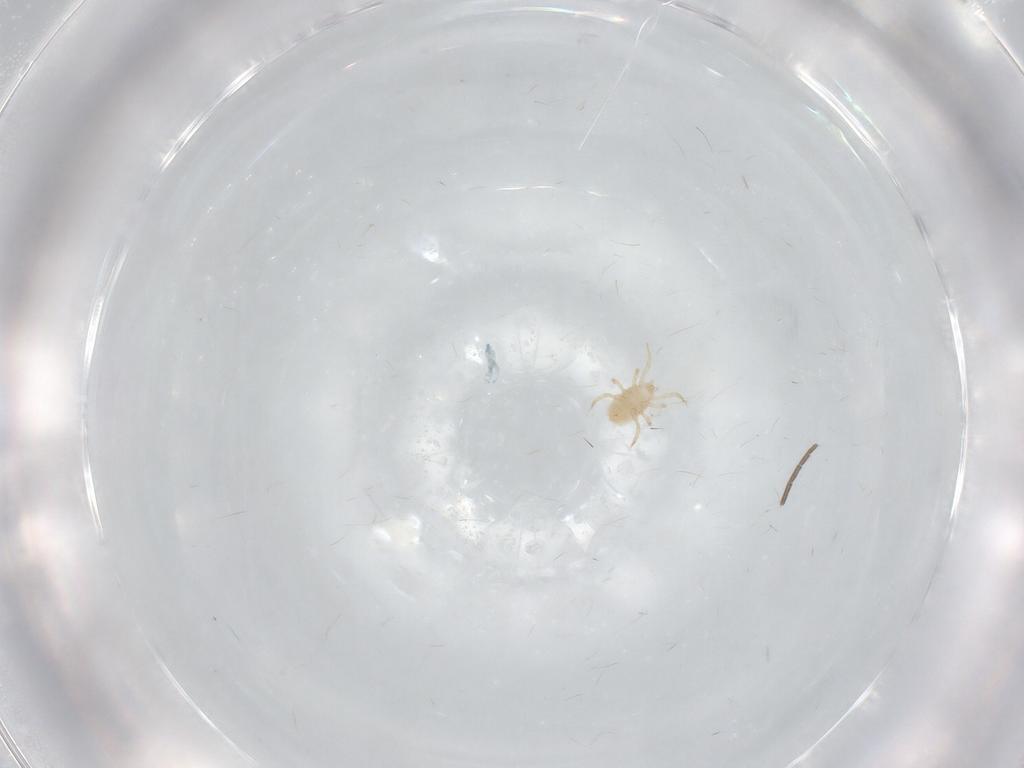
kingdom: Animalia
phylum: Arthropoda
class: Arachnida
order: Mesostigmata
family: Blattisociidae
